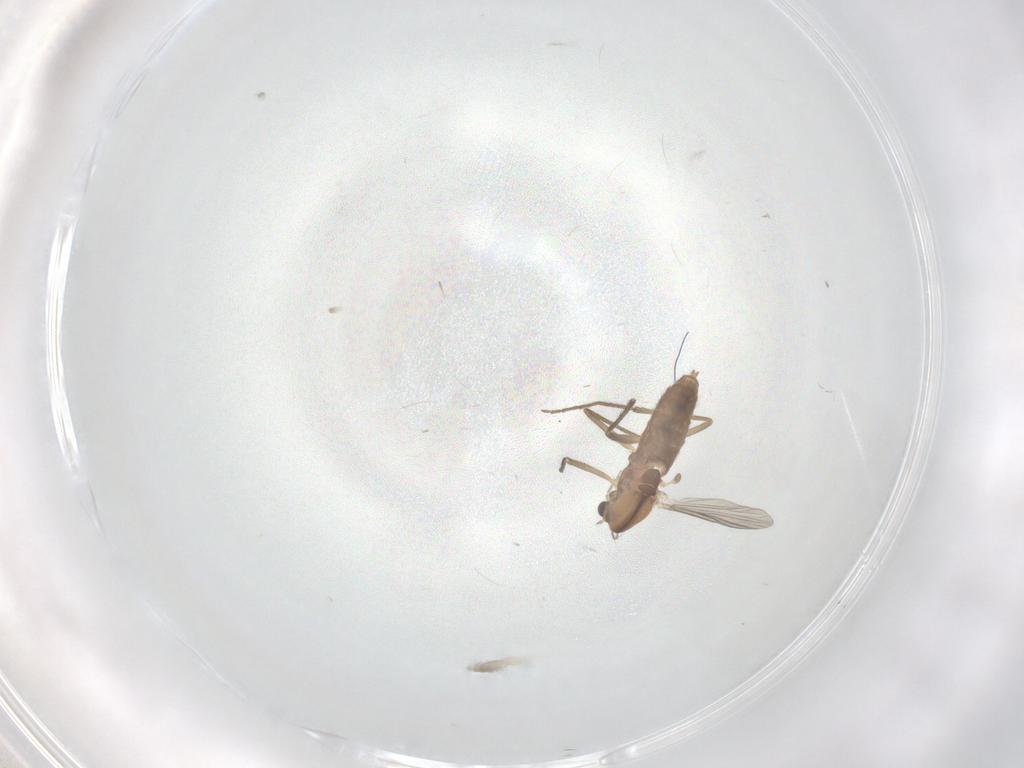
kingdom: Animalia
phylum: Arthropoda
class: Insecta
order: Diptera
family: Chironomidae
